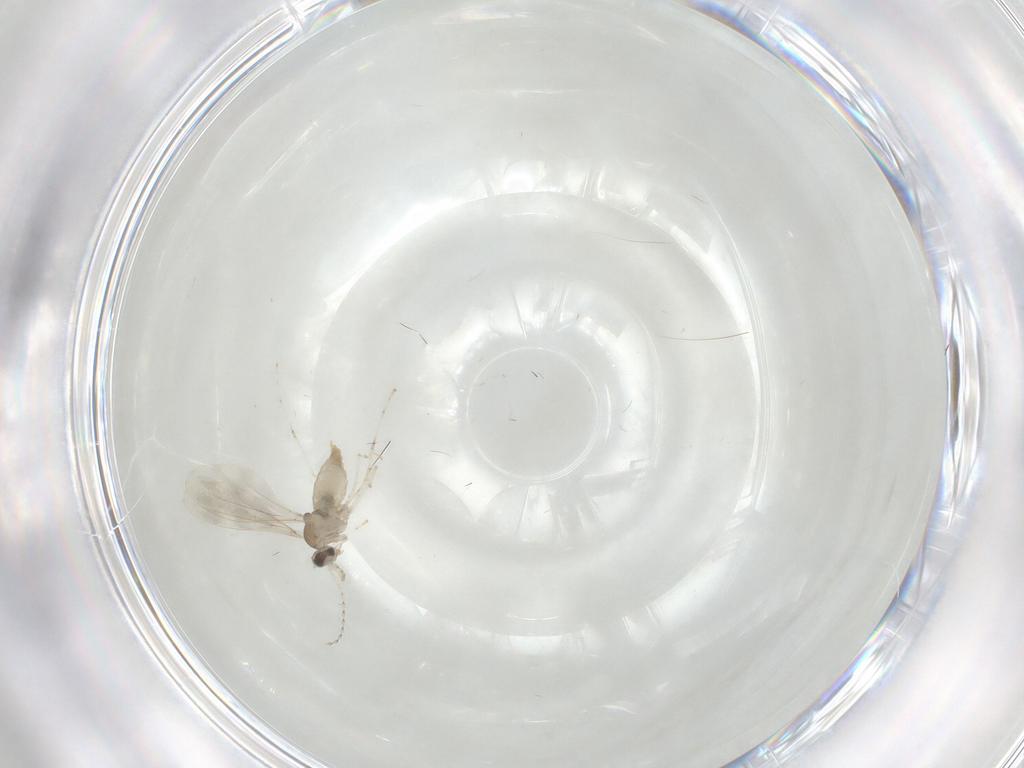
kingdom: Animalia
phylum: Arthropoda
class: Insecta
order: Diptera
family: Cecidomyiidae
